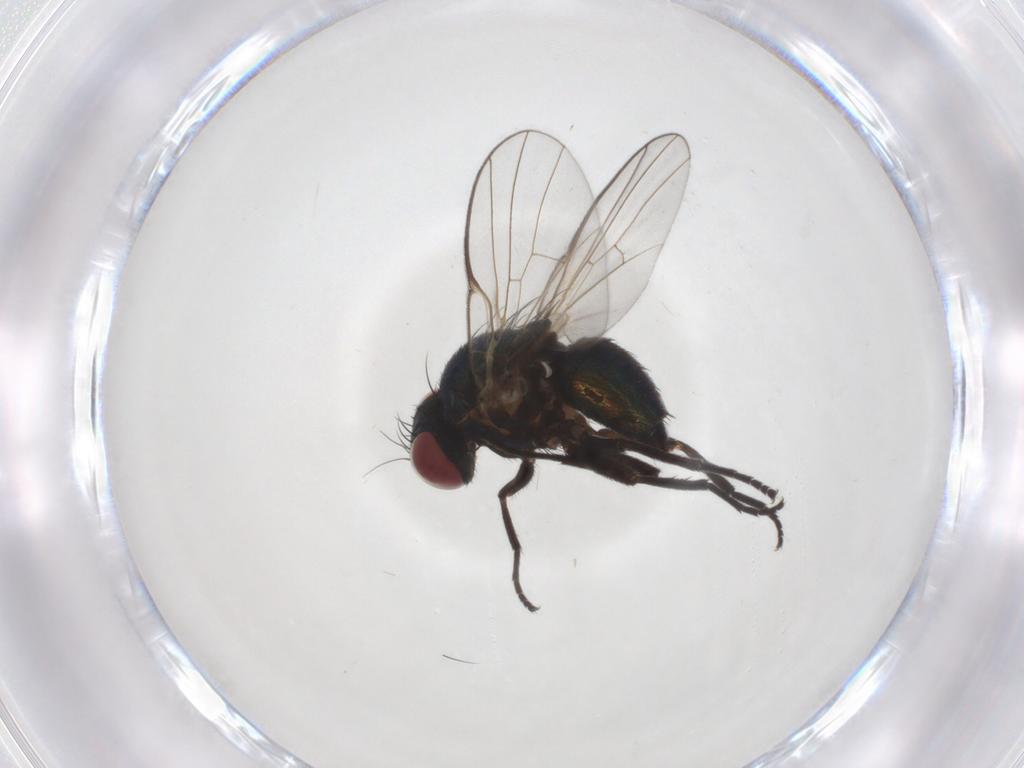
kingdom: Animalia
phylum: Arthropoda
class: Insecta
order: Diptera
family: Agromyzidae
